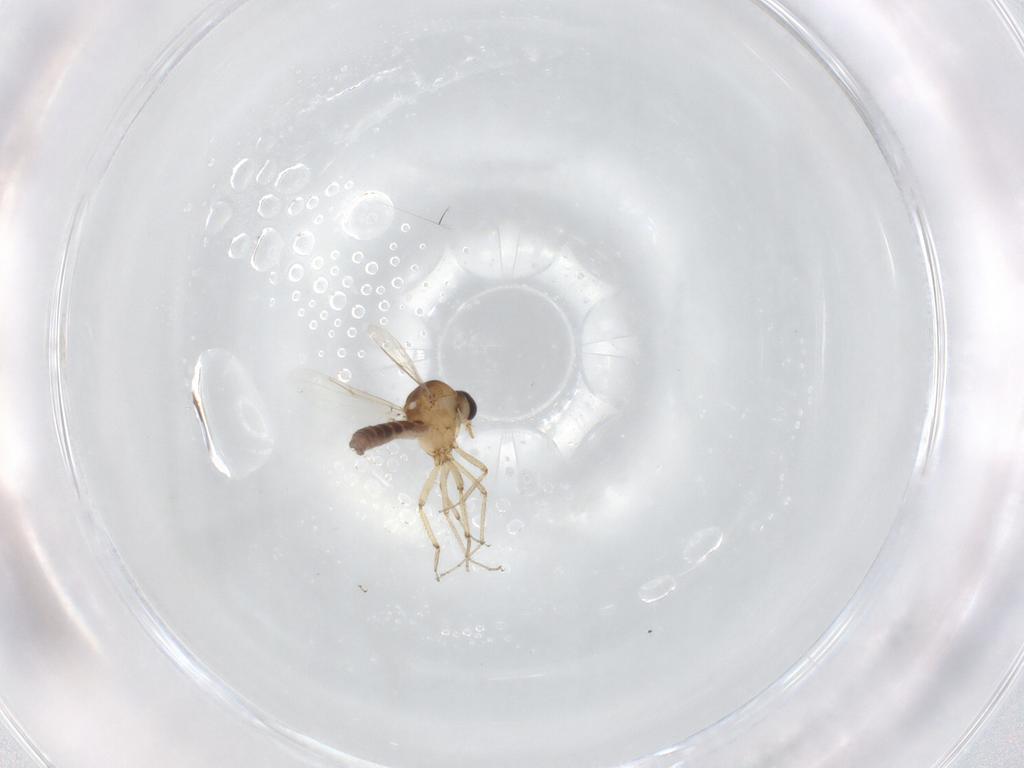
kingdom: Animalia
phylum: Arthropoda
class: Insecta
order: Diptera
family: Ceratopogonidae
